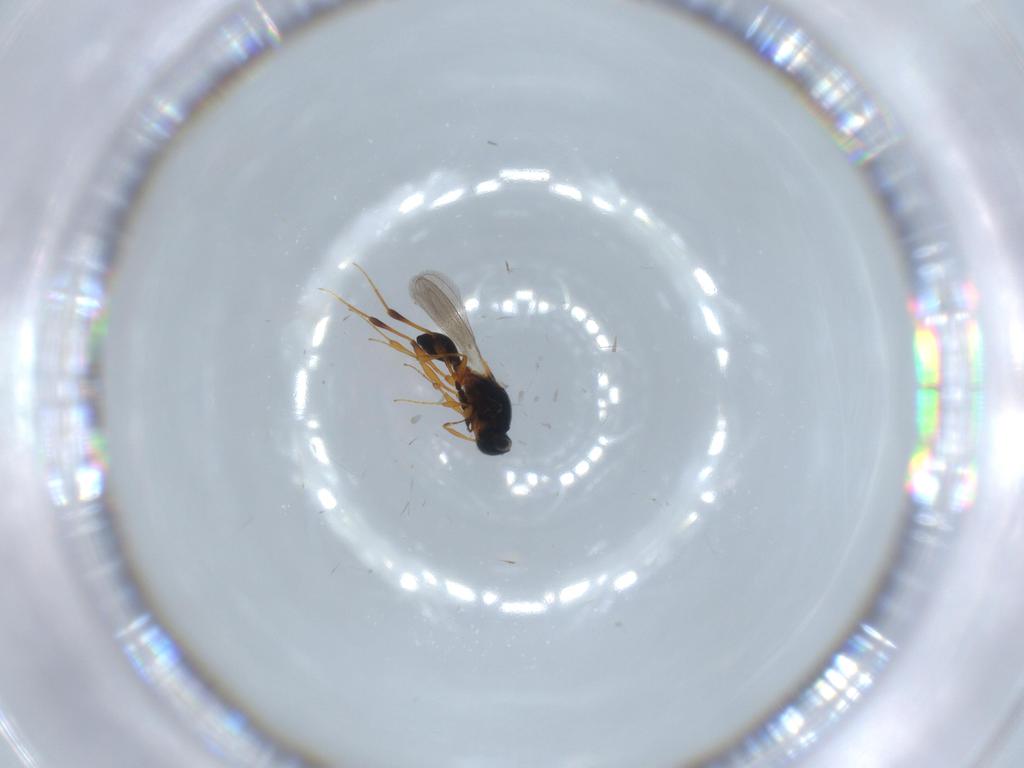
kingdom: Animalia
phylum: Arthropoda
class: Insecta
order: Hymenoptera
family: Platygastridae
